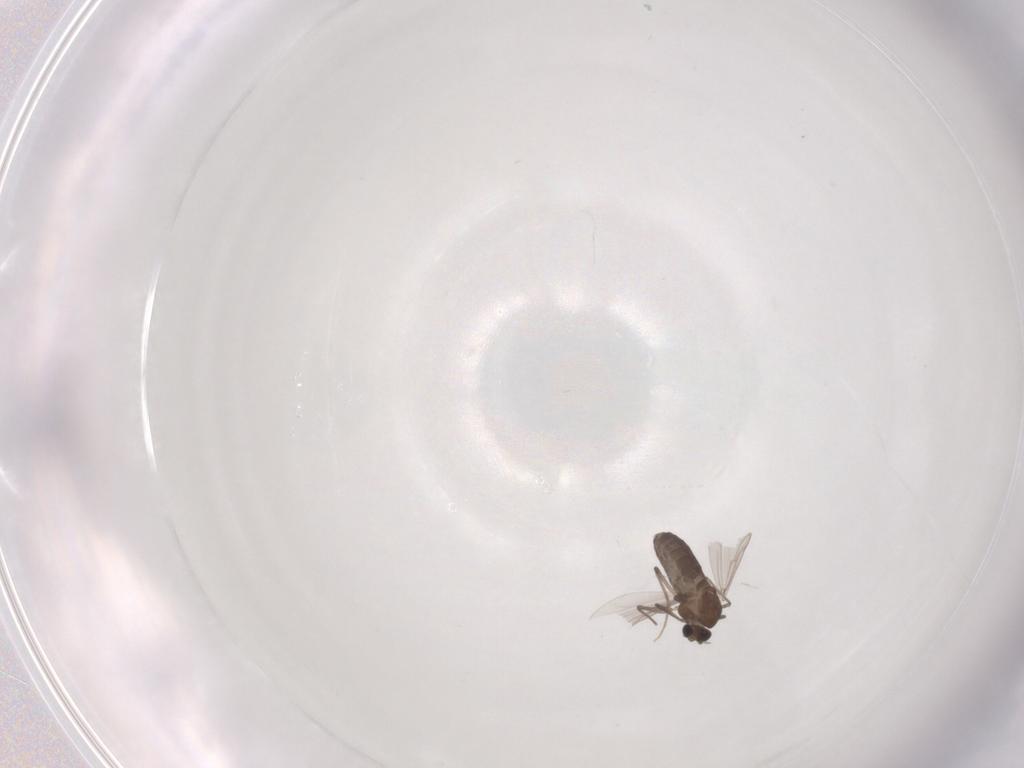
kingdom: Animalia
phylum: Arthropoda
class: Insecta
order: Diptera
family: Chironomidae
